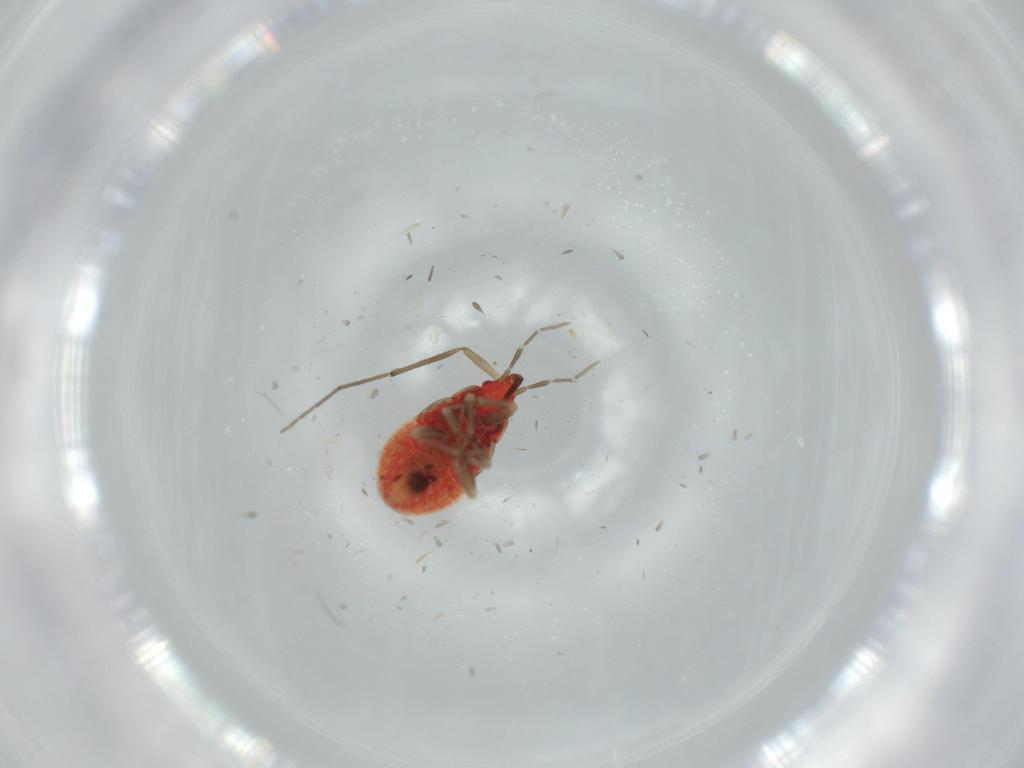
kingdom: Animalia
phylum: Arthropoda
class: Insecta
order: Hemiptera
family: Anthocoridae
